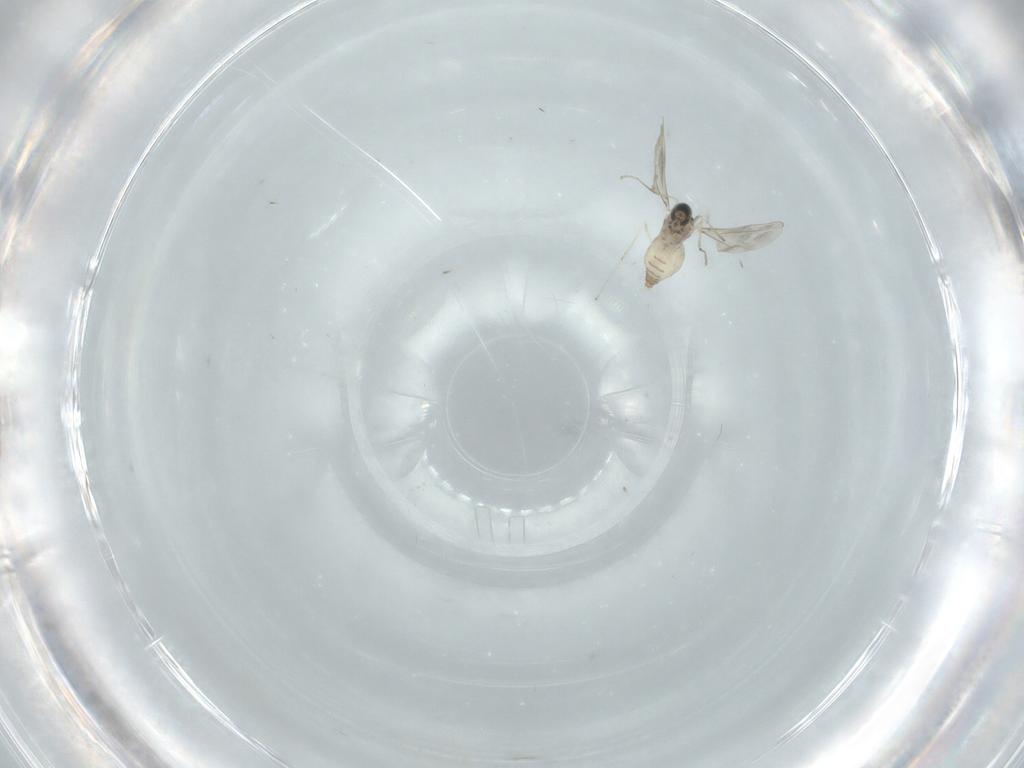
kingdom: Animalia
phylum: Arthropoda
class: Insecta
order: Diptera
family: Cecidomyiidae
